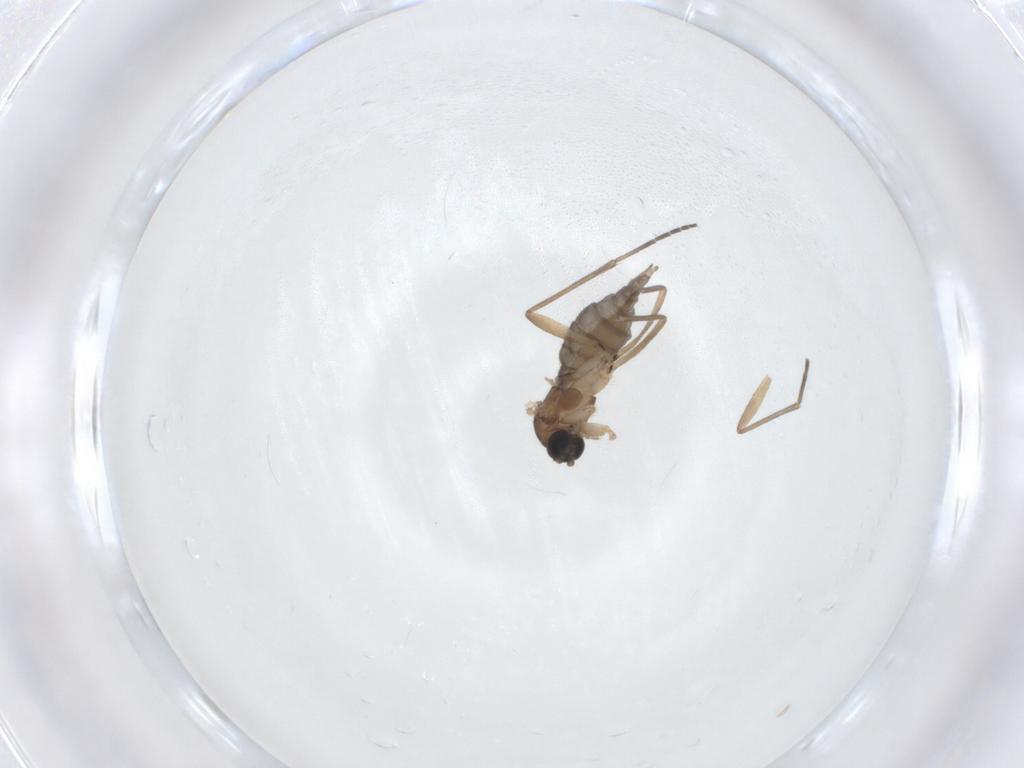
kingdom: Animalia
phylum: Arthropoda
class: Insecta
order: Diptera
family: Sciaridae
